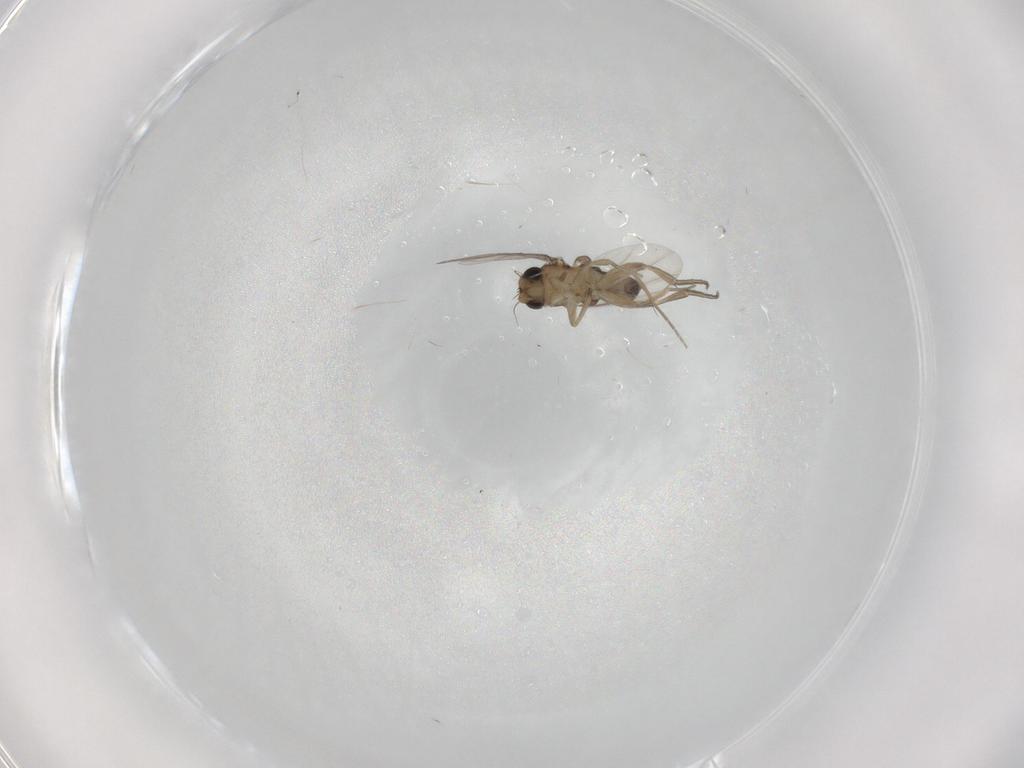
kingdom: Animalia
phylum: Arthropoda
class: Insecta
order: Diptera
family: Phoridae
